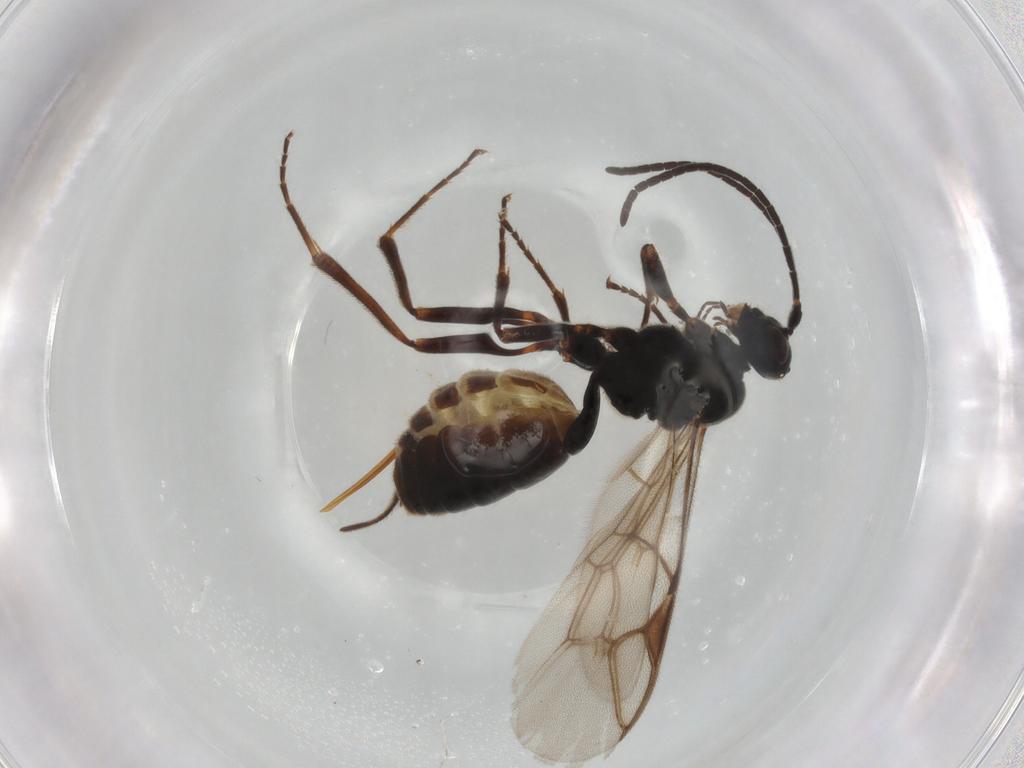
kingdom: Animalia
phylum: Arthropoda
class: Insecta
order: Hymenoptera
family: Ichneumonidae
